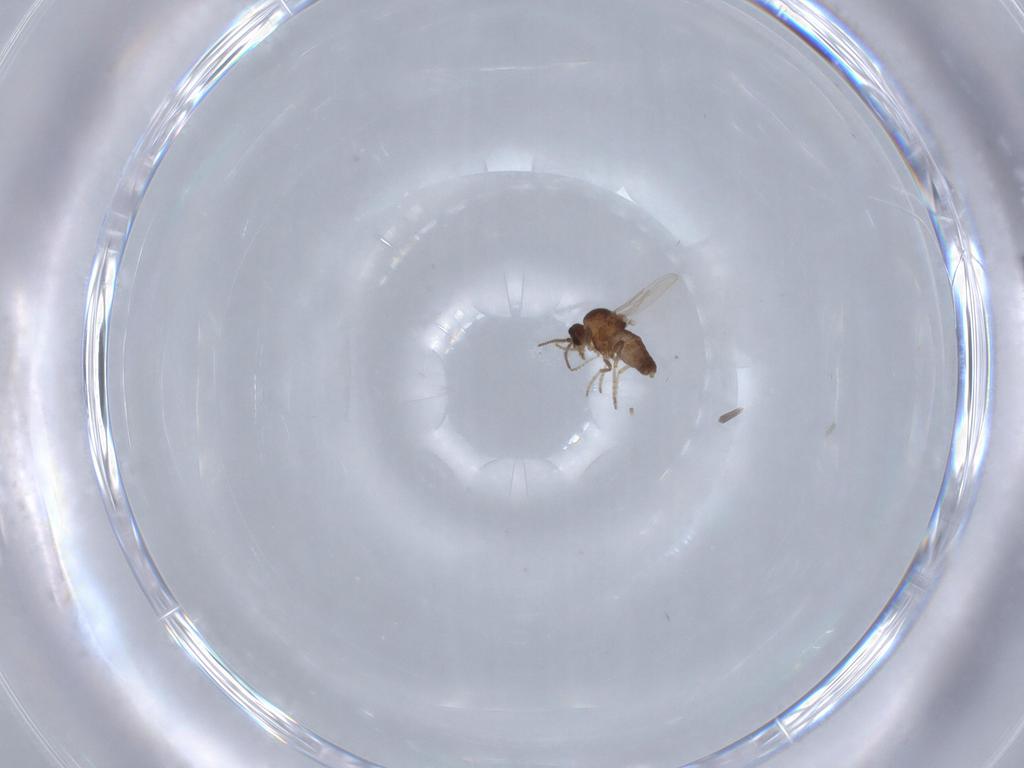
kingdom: Animalia
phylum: Arthropoda
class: Insecta
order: Diptera
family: Ceratopogonidae
